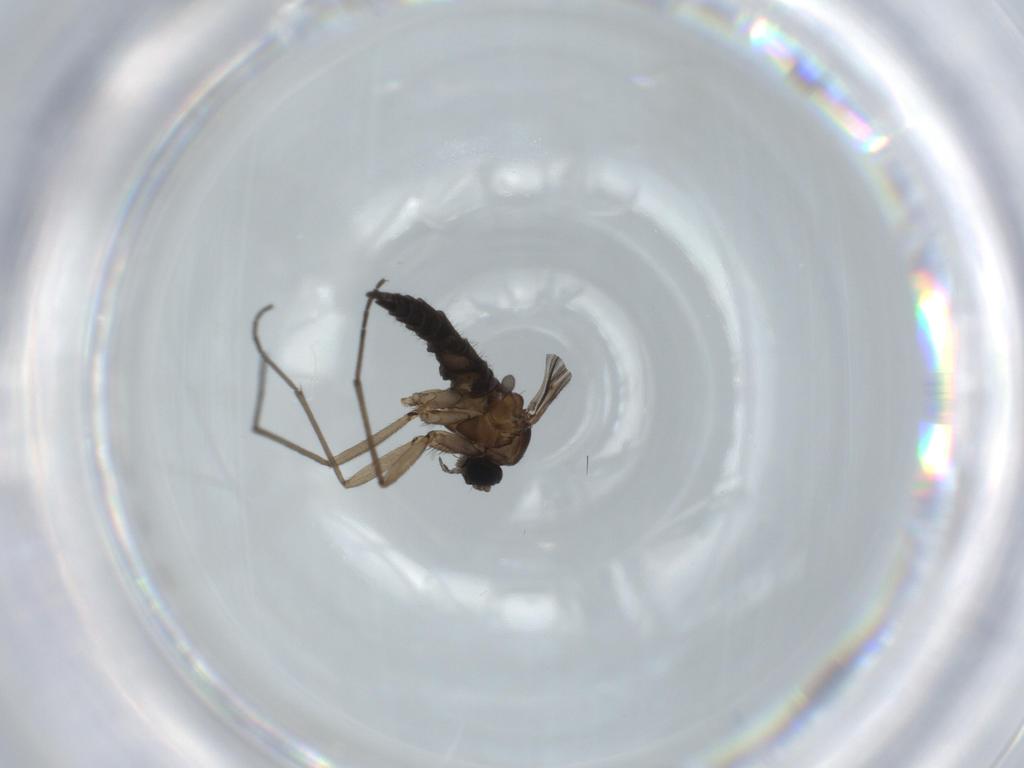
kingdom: Animalia
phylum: Arthropoda
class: Insecta
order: Diptera
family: Sciaridae
